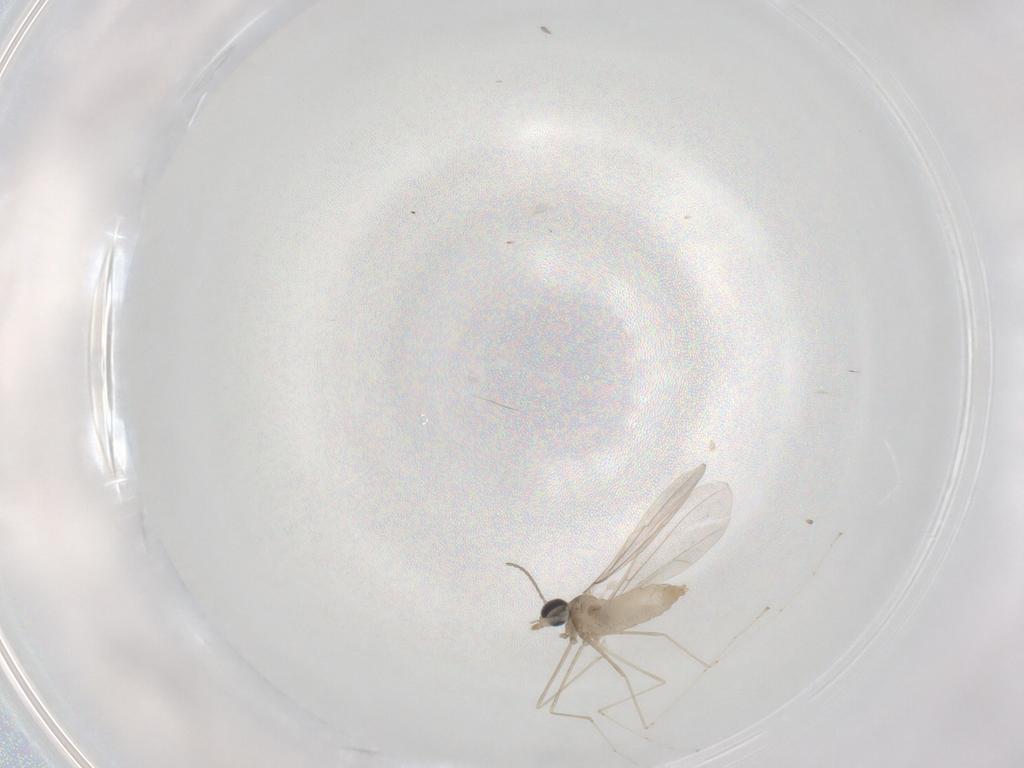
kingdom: Animalia
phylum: Arthropoda
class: Insecta
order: Diptera
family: Cecidomyiidae
